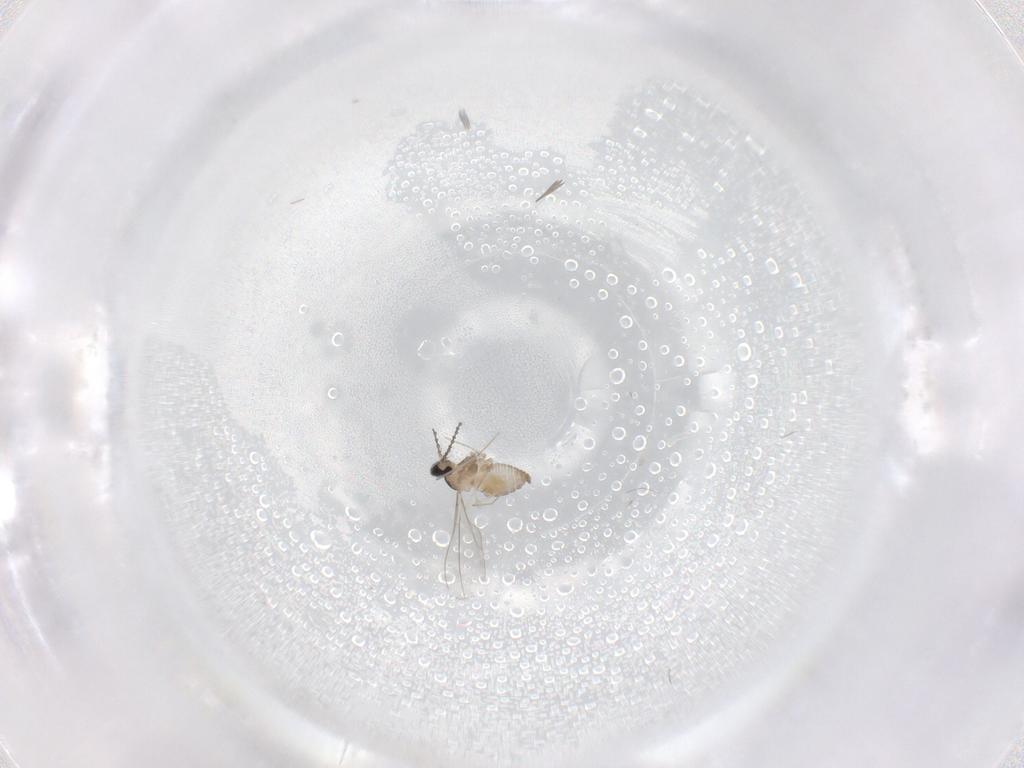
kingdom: Animalia
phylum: Arthropoda
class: Insecta
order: Diptera
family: Cecidomyiidae
